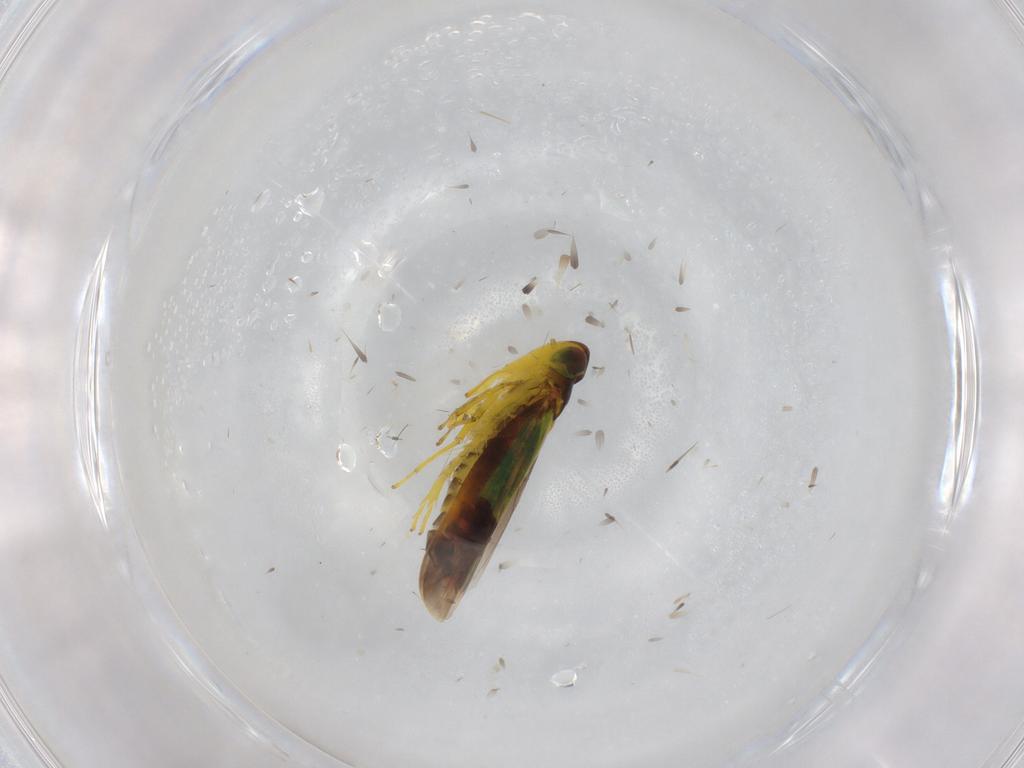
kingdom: Animalia
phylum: Arthropoda
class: Insecta
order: Hemiptera
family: Cicadellidae
